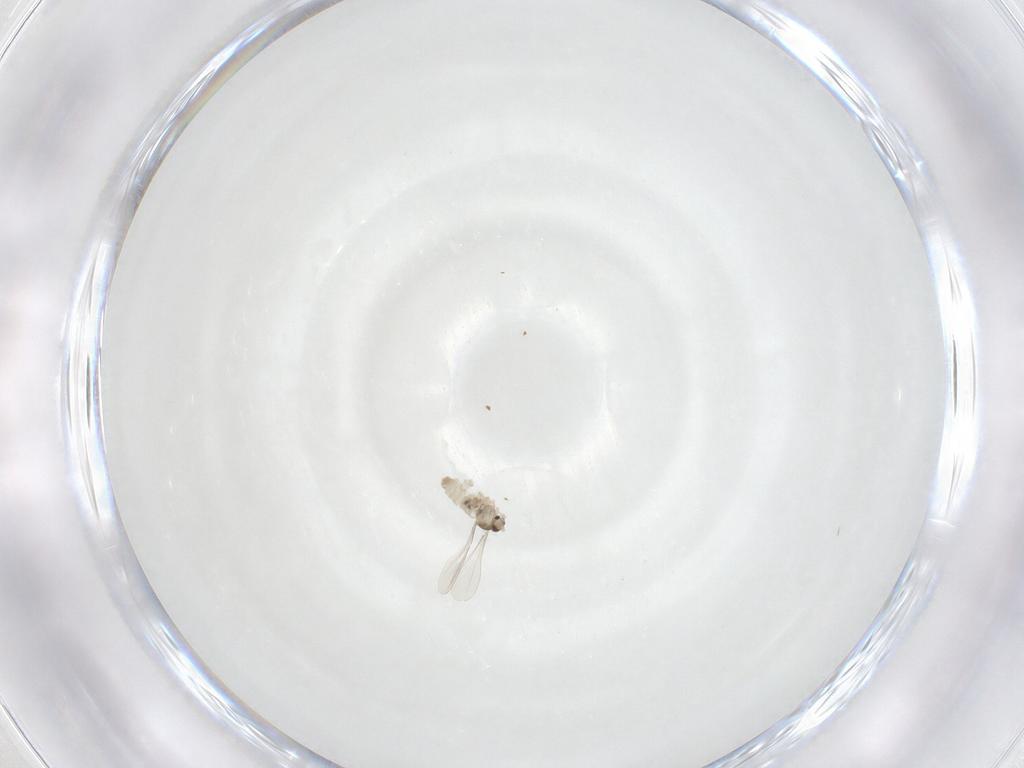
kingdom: Animalia
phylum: Arthropoda
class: Insecta
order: Diptera
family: Cecidomyiidae
